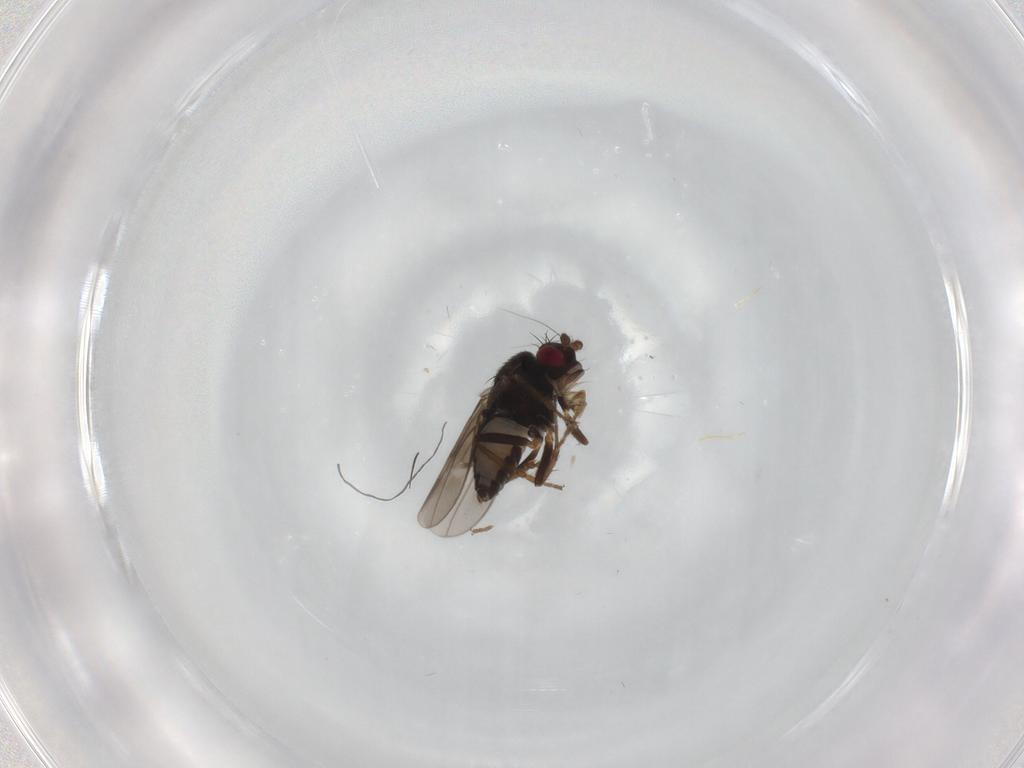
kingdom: Animalia
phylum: Arthropoda
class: Insecta
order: Diptera
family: Sphaeroceridae
